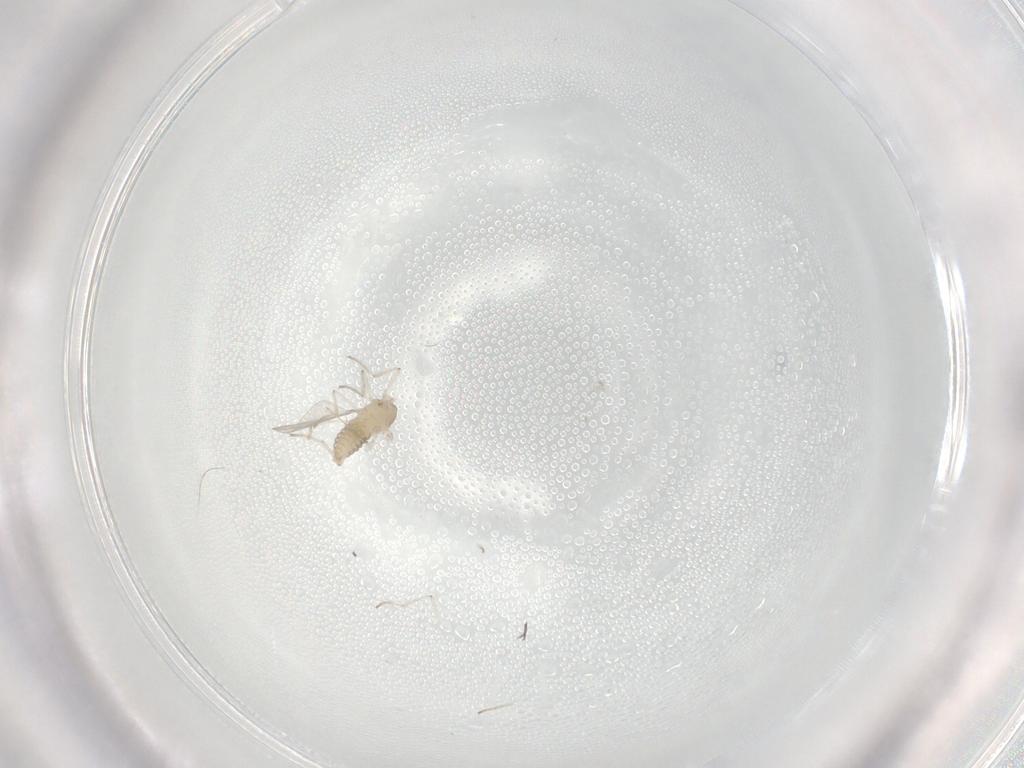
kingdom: Animalia
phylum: Arthropoda
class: Insecta
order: Diptera
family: Cecidomyiidae
